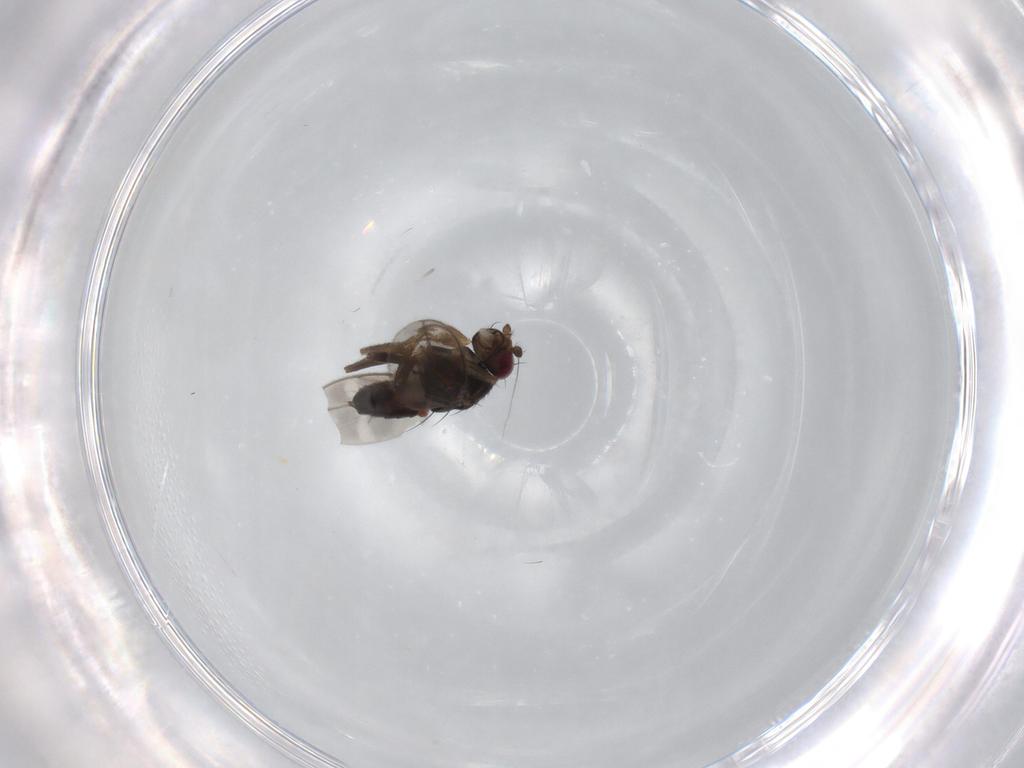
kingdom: Animalia
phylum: Arthropoda
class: Insecta
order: Diptera
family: Sphaeroceridae
